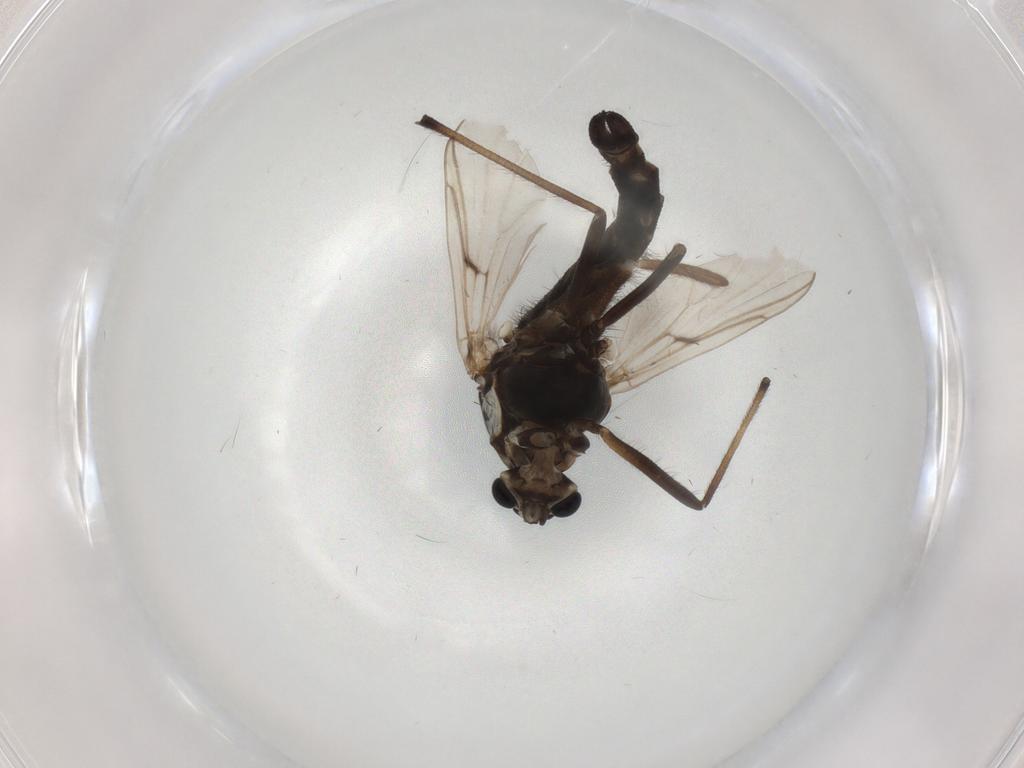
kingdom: Animalia
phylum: Arthropoda
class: Insecta
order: Diptera
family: Chironomidae
